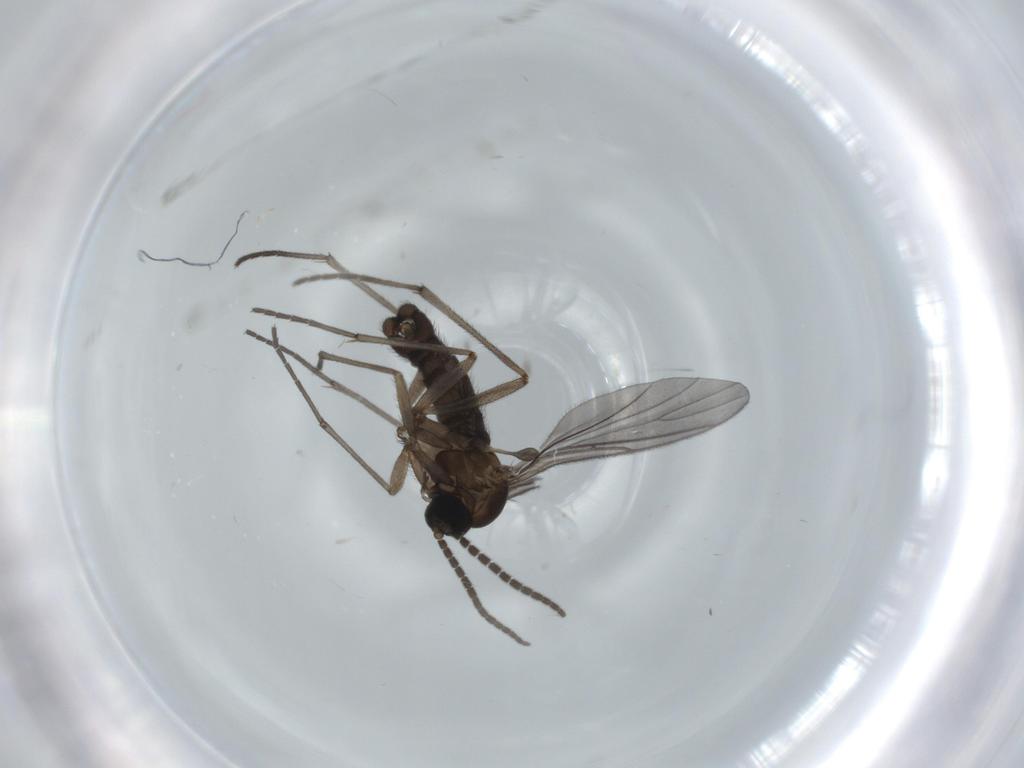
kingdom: Animalia
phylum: Arthropoda
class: Insecta
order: Diptera
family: Sciaridae
